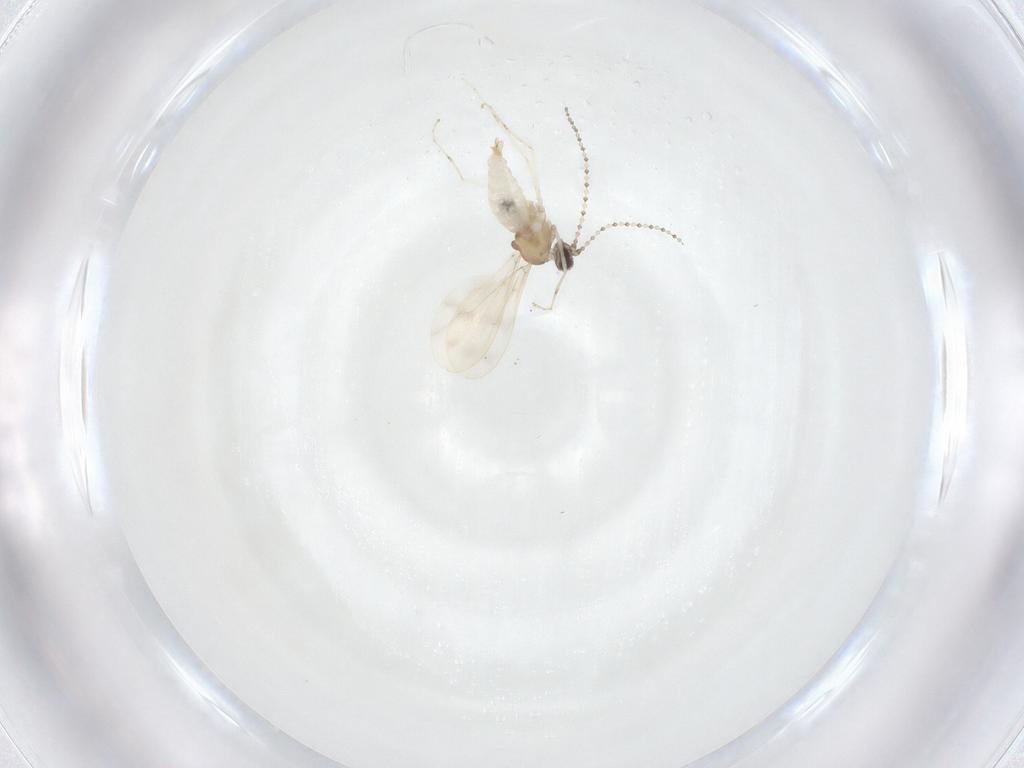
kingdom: Animalia
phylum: Arthropoda
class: Insecta
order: Diptera
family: Cecidomyiidae
